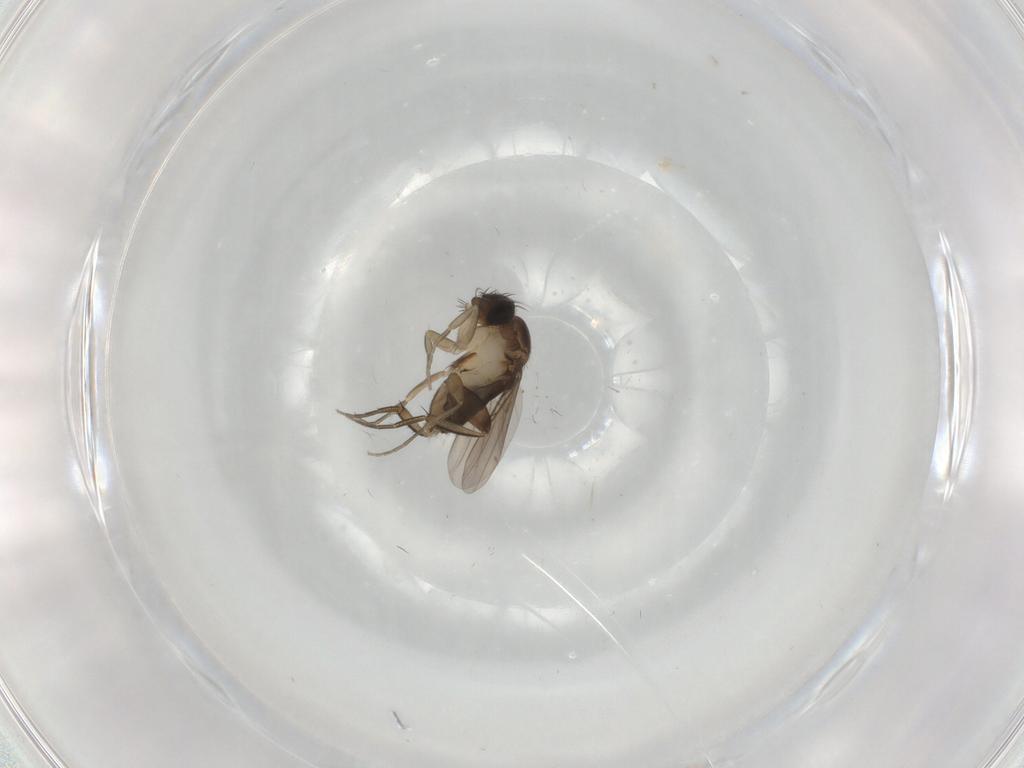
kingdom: Animalia
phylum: Arthropoda
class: Insecta
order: Diptera
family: Phoridae
